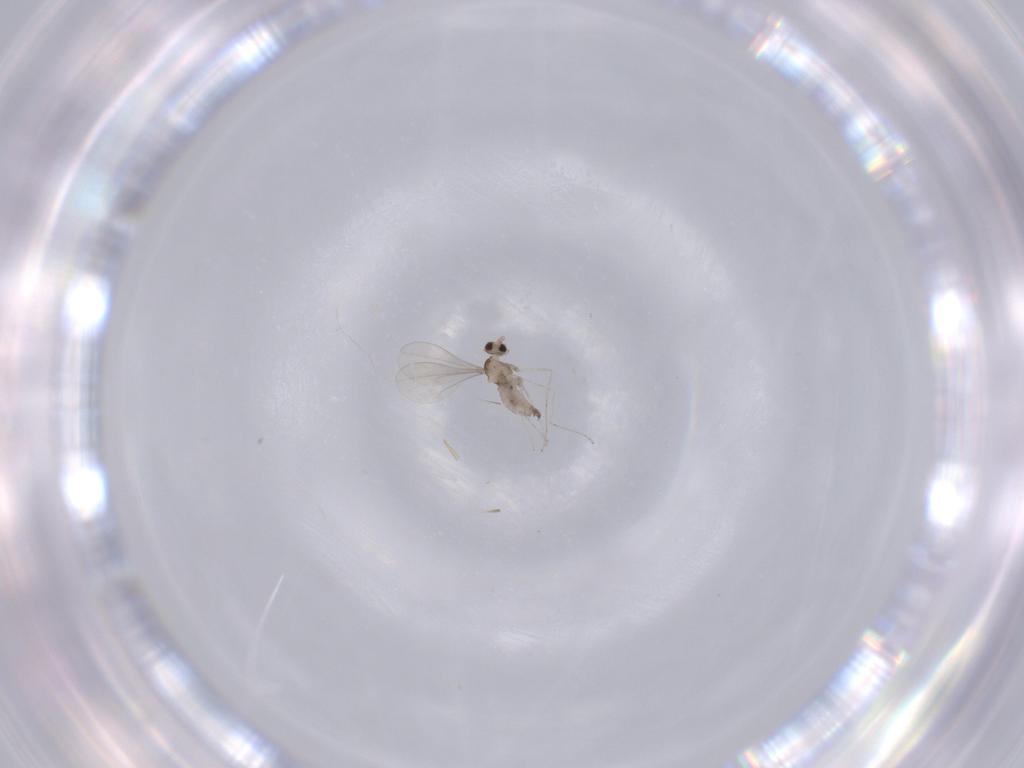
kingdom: Animalia
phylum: Arthropoda
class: Insecta
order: Diptera
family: Cecidomyiidae
